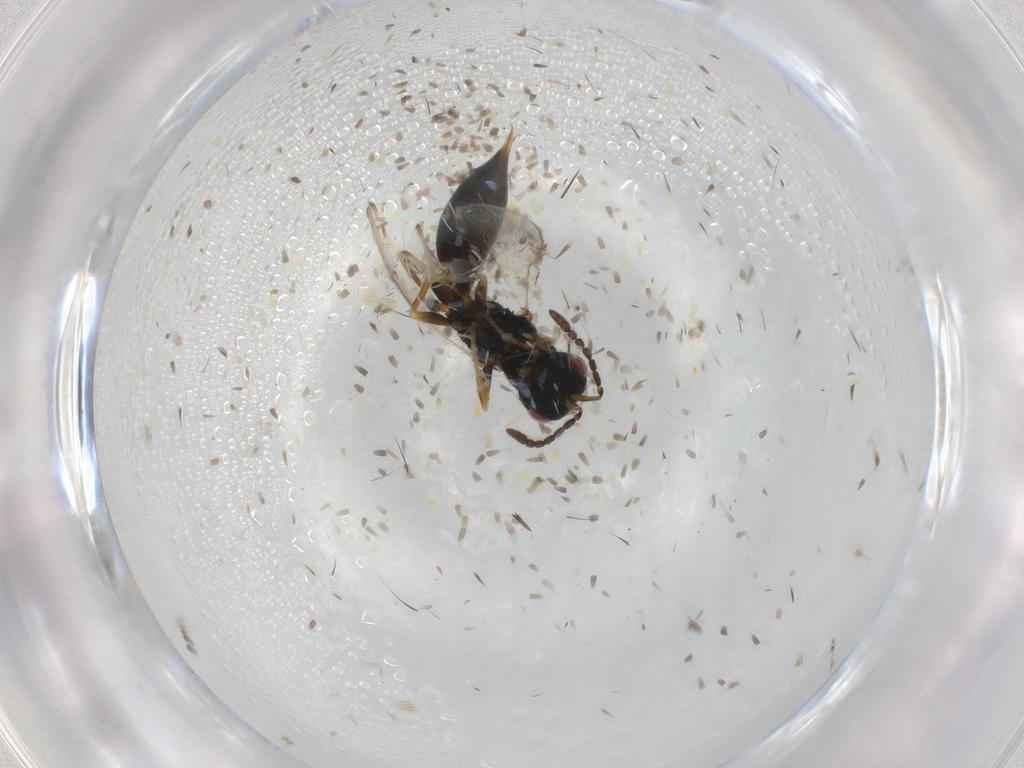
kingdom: Animalia
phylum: Arthropoda
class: Insecta
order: Hymenoptera
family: Eurytomidae
